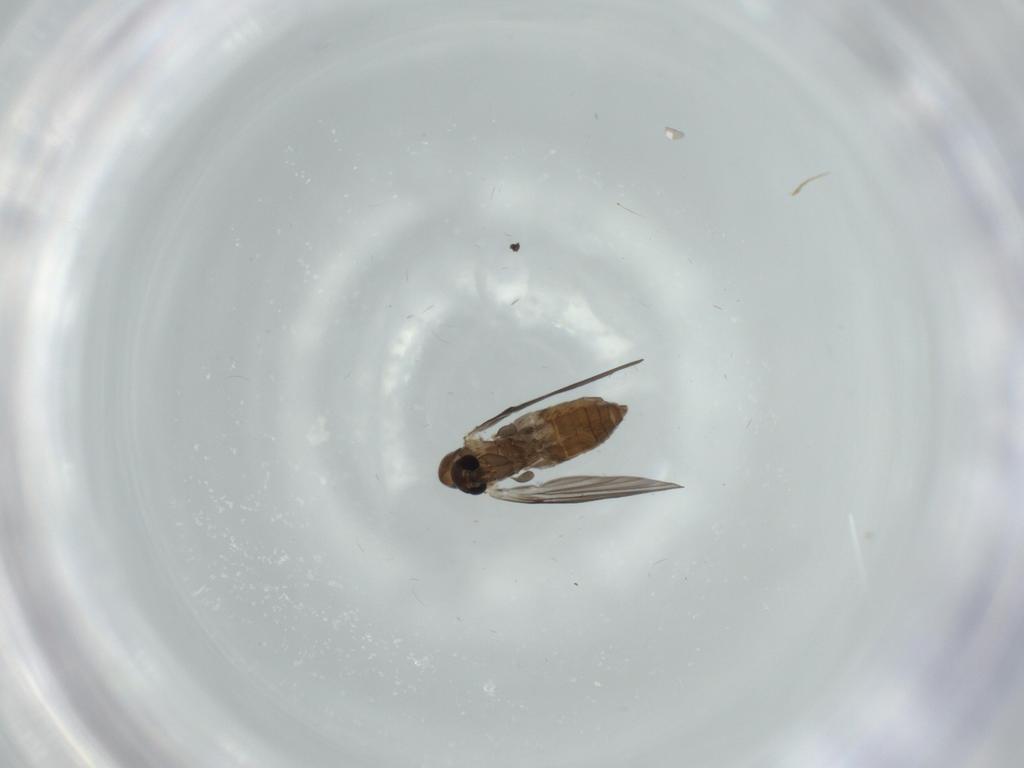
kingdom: Animalia
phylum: Arthropoda
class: Insecta
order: Diptera
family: Psychodidae
